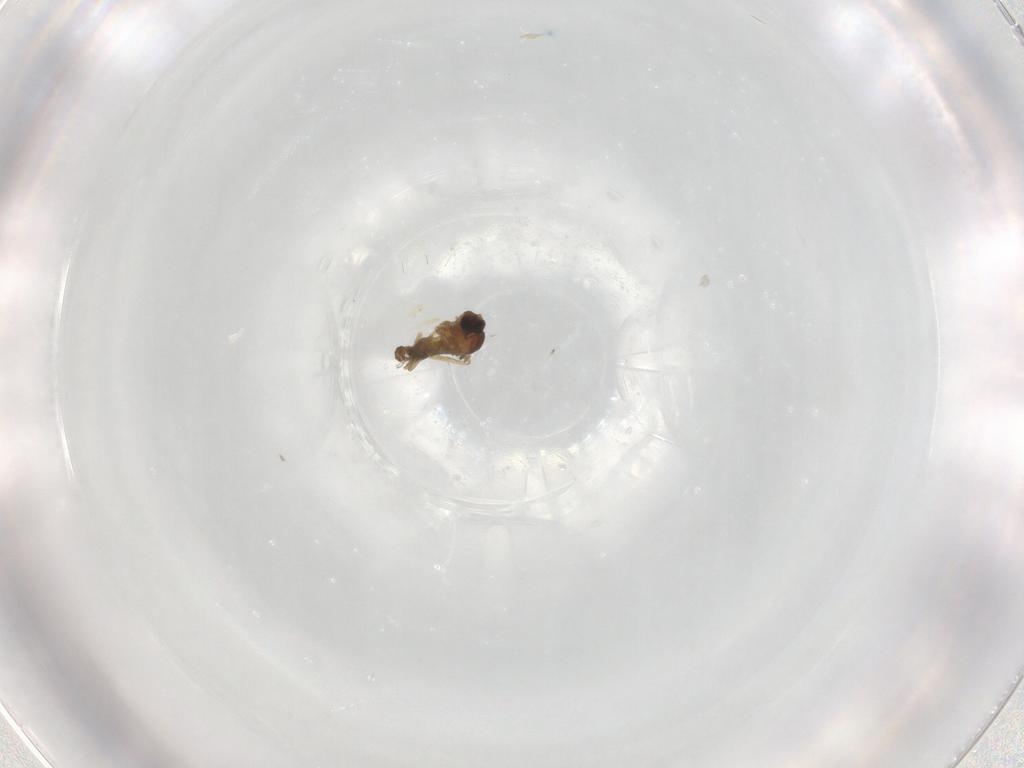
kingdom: Animalia
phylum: Arthropoda
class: Insecta
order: Diptera
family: Cecidomyiidae
